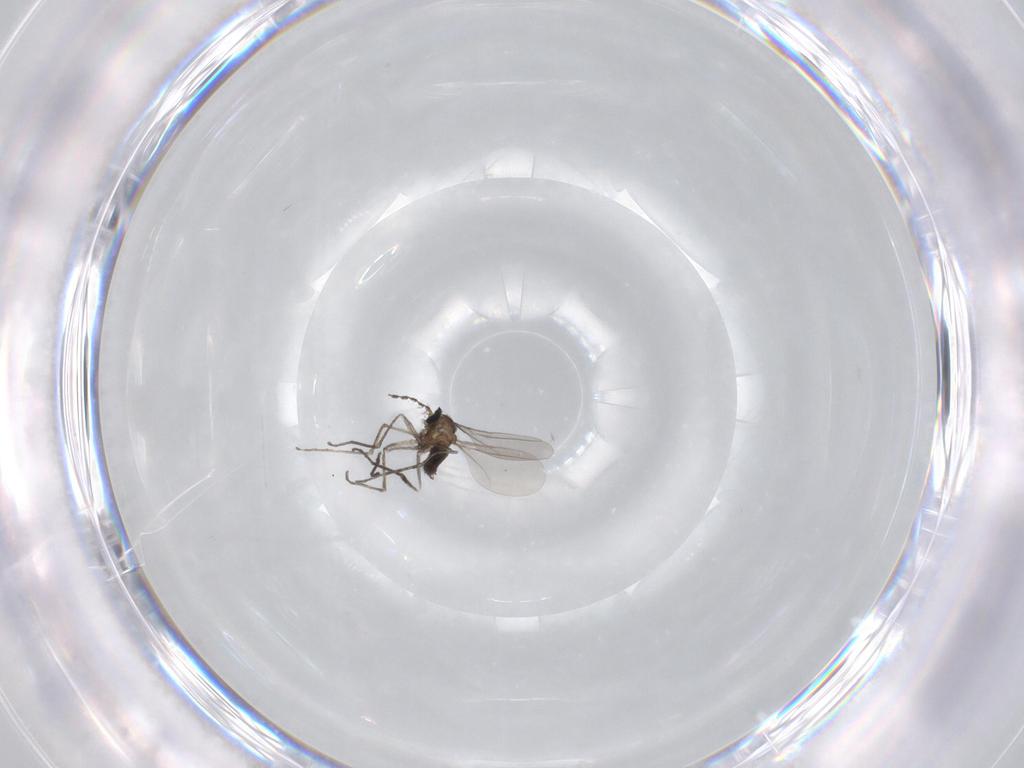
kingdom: Animalia
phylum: Arthropoda
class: Insecta
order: Diptera
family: Cecidomyiidae
